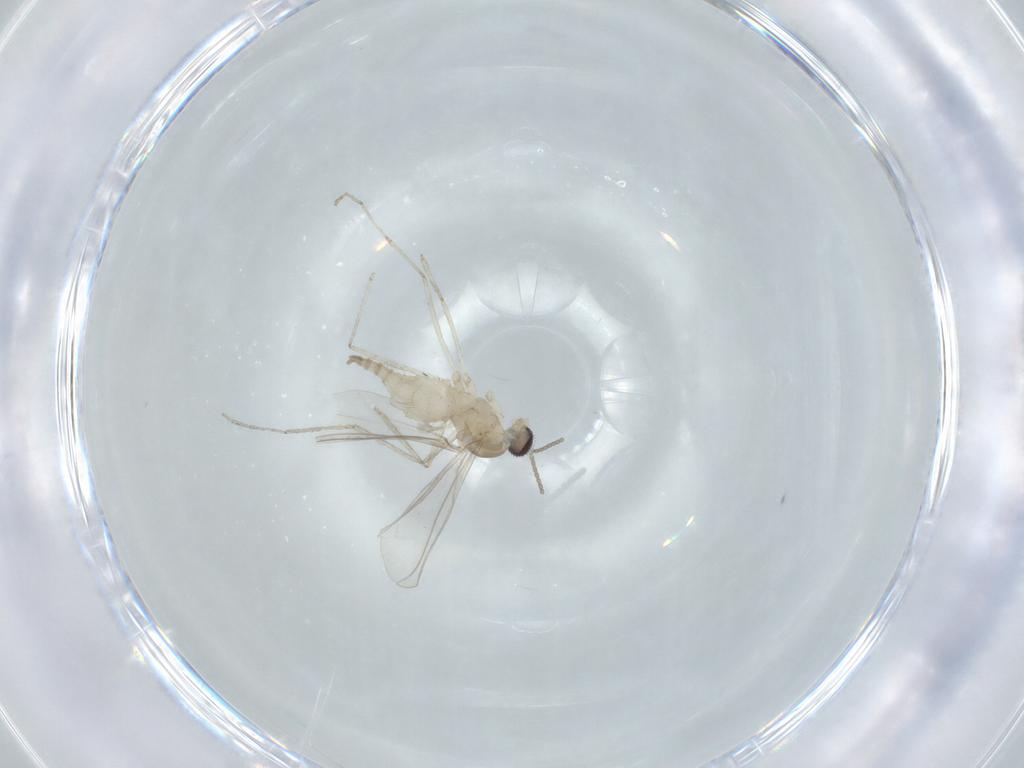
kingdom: Animalia
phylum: Arthropoda
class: Insecta
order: Diptera
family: Cecidomyiidae
